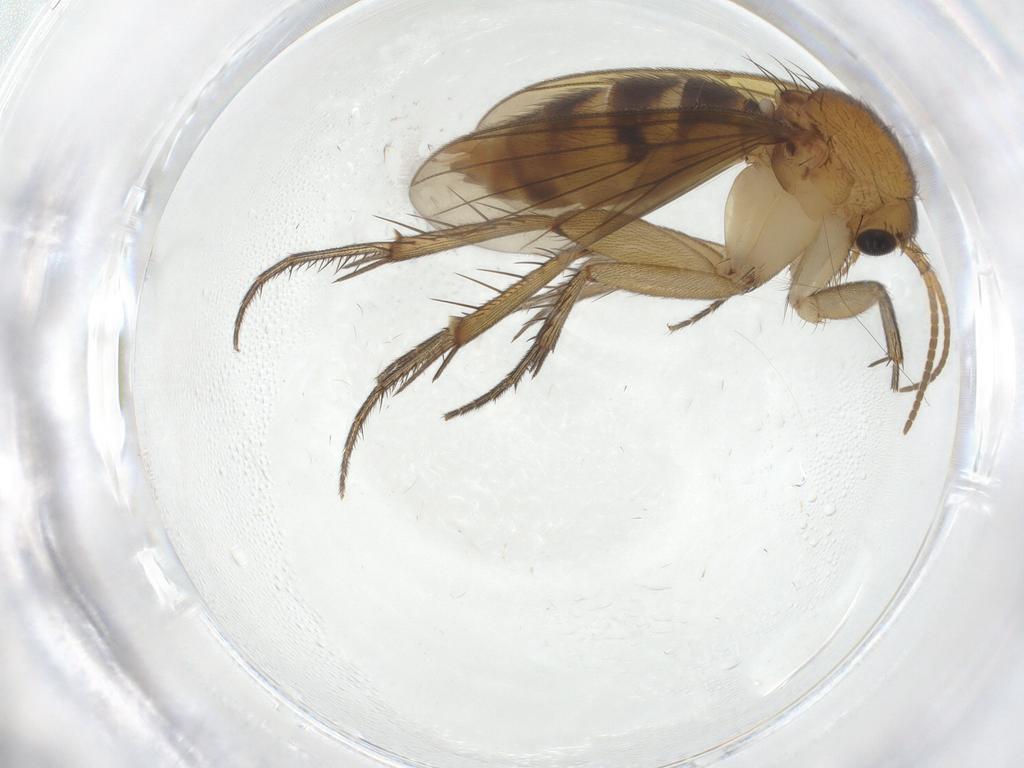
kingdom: Animalia
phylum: Arthropoda
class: Insecta
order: Diptera
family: Mycetophilidae
